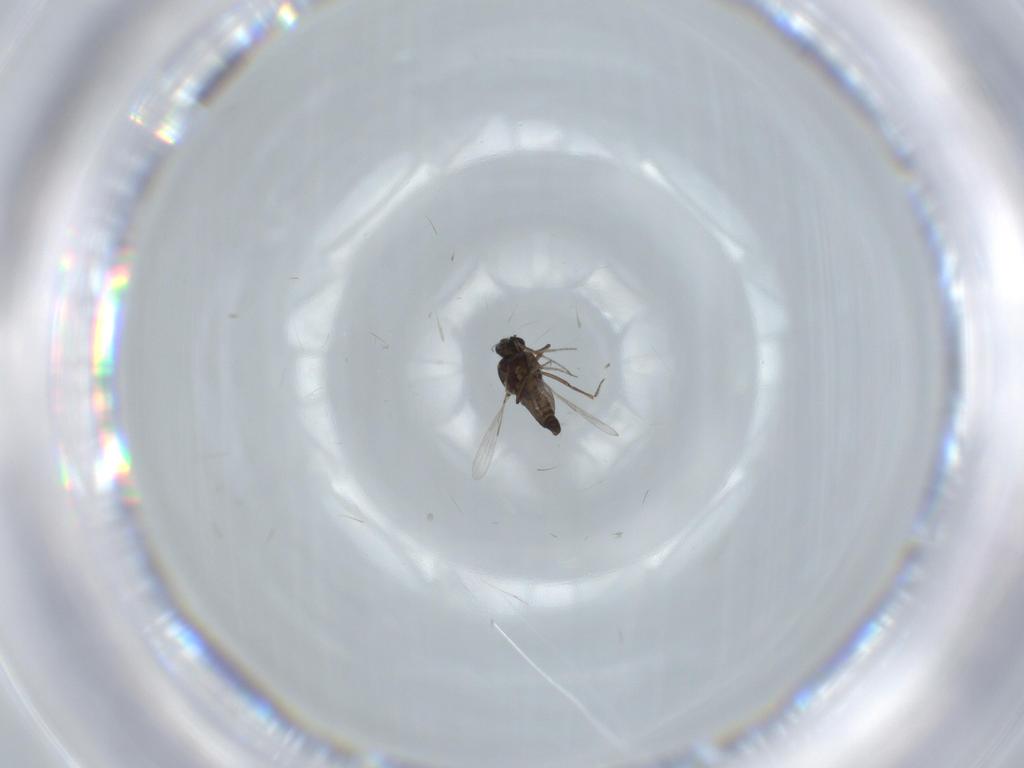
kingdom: Animalia
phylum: Arthropoda
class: Insecta
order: Diptera
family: Ceratopogonidae
